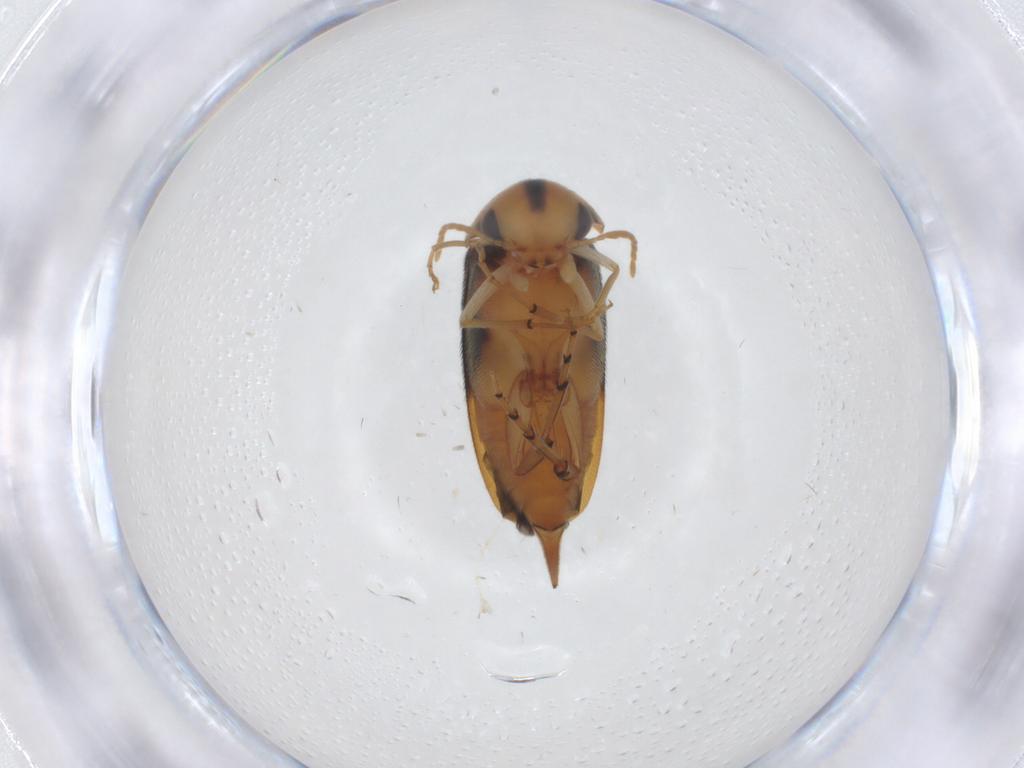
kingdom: Animalia
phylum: Arthropoda
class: Insecta
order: Coleoptera
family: Mordellidae
